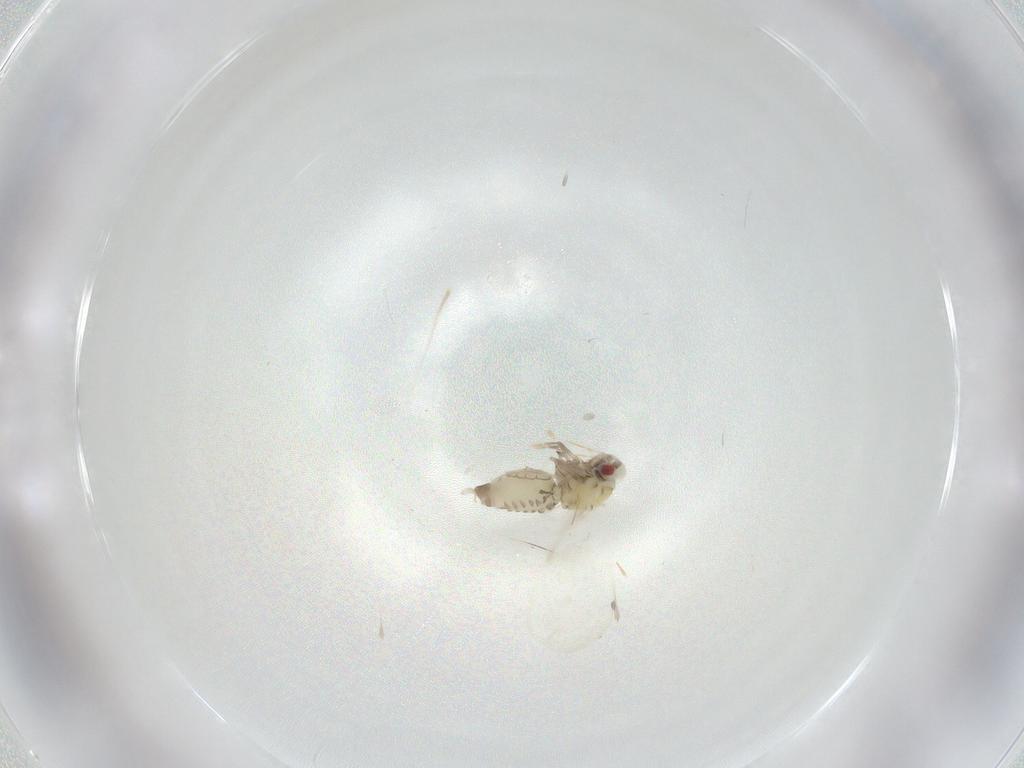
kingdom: Animalia
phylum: Arthropoda
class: Insecta
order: Hemiptera
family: Aleyrodidae
